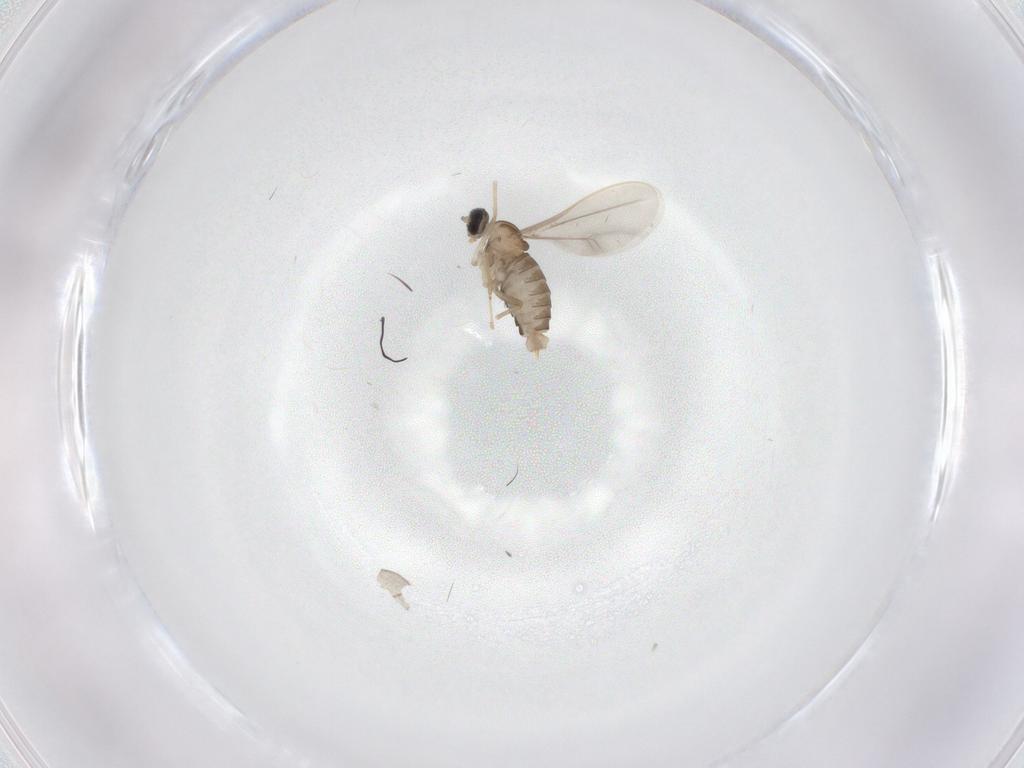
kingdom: Animalia
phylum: Arthropoda
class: Insecta
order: Diptera
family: Cecidomyiidae
